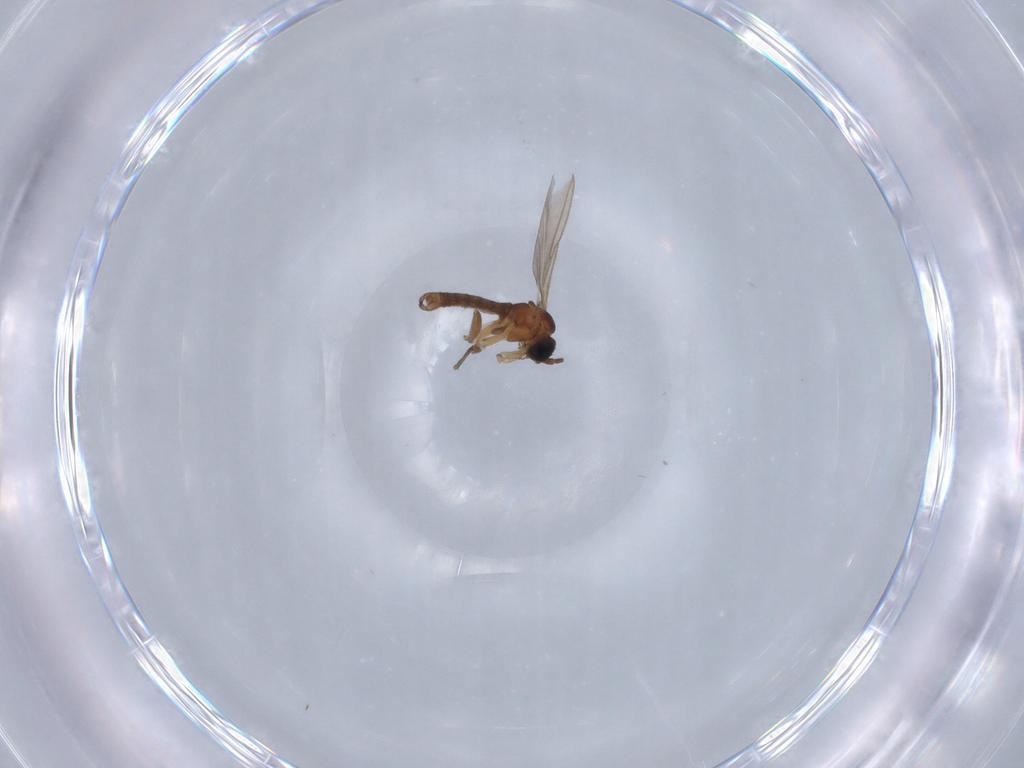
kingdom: Animalia
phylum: Arthropoda
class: Insecta
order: Diptera
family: Sciaridae
